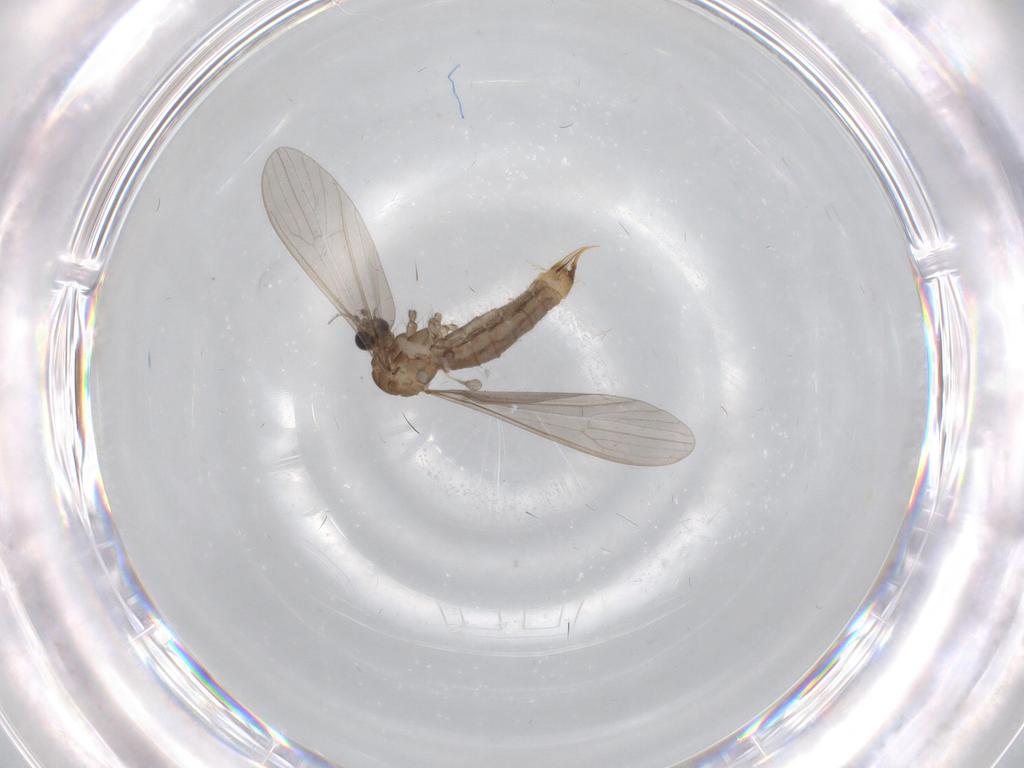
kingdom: Animalia
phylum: Arthropoda
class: Insecta
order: Diptera
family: Limoniidae
